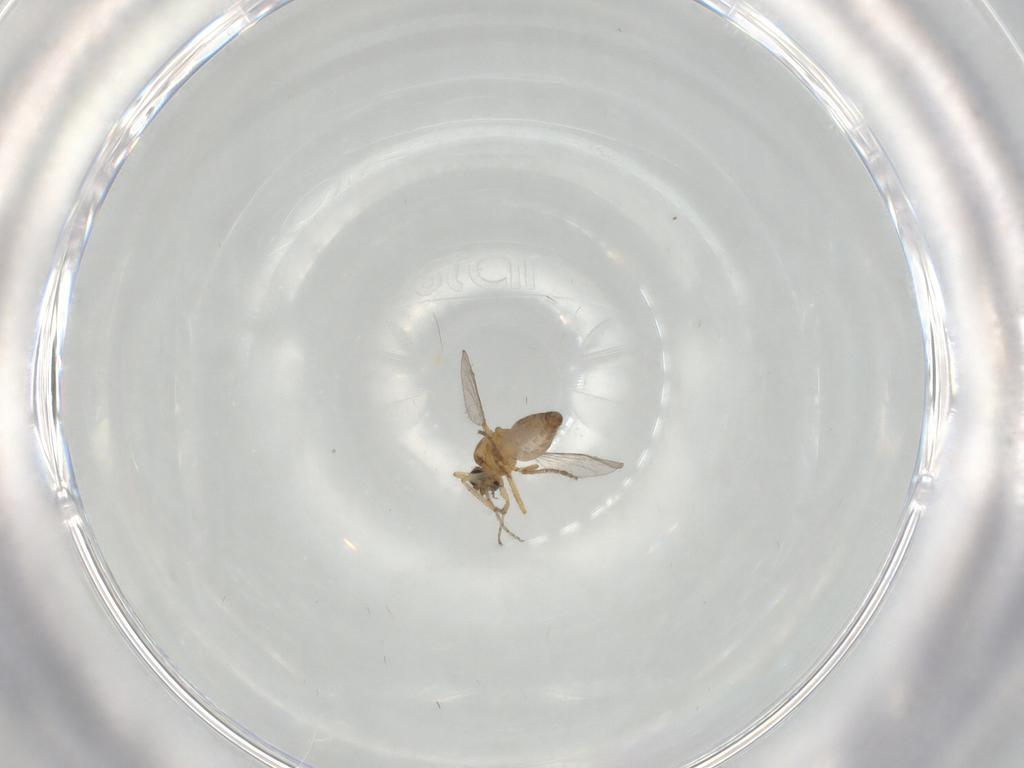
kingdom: Animalia
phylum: Arthropoda
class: Insecta
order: Diptera
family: Cecidomyiidae
